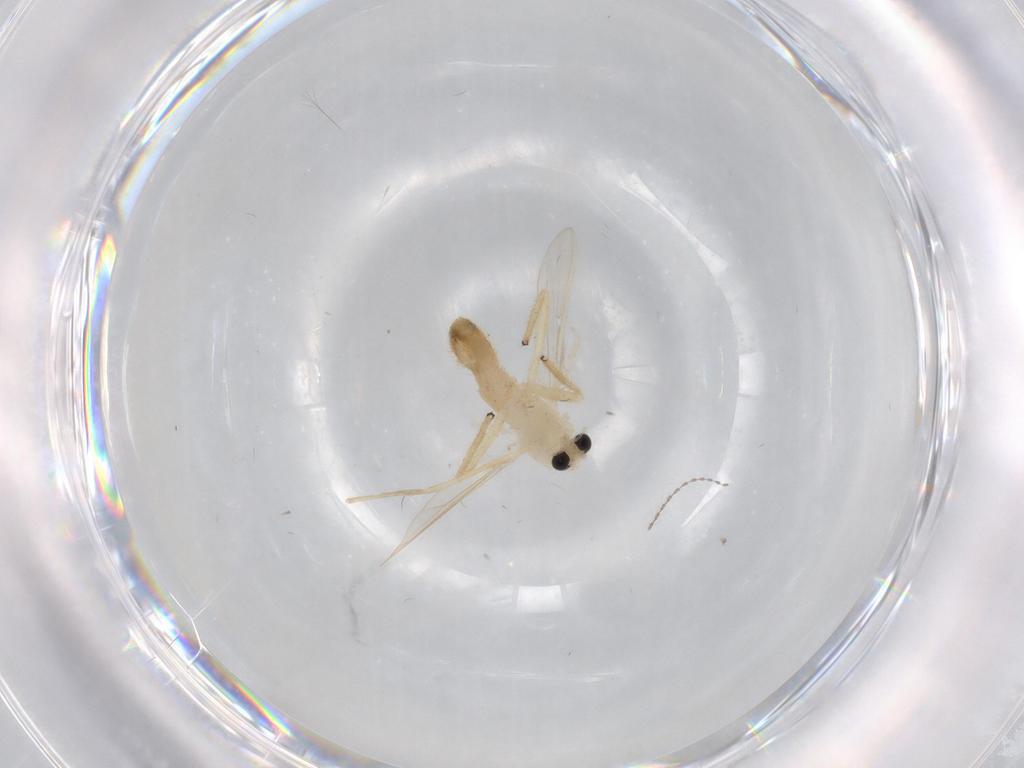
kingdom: Animalia
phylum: Arthropoda
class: Insecta
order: Diptera
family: Chironomidae
